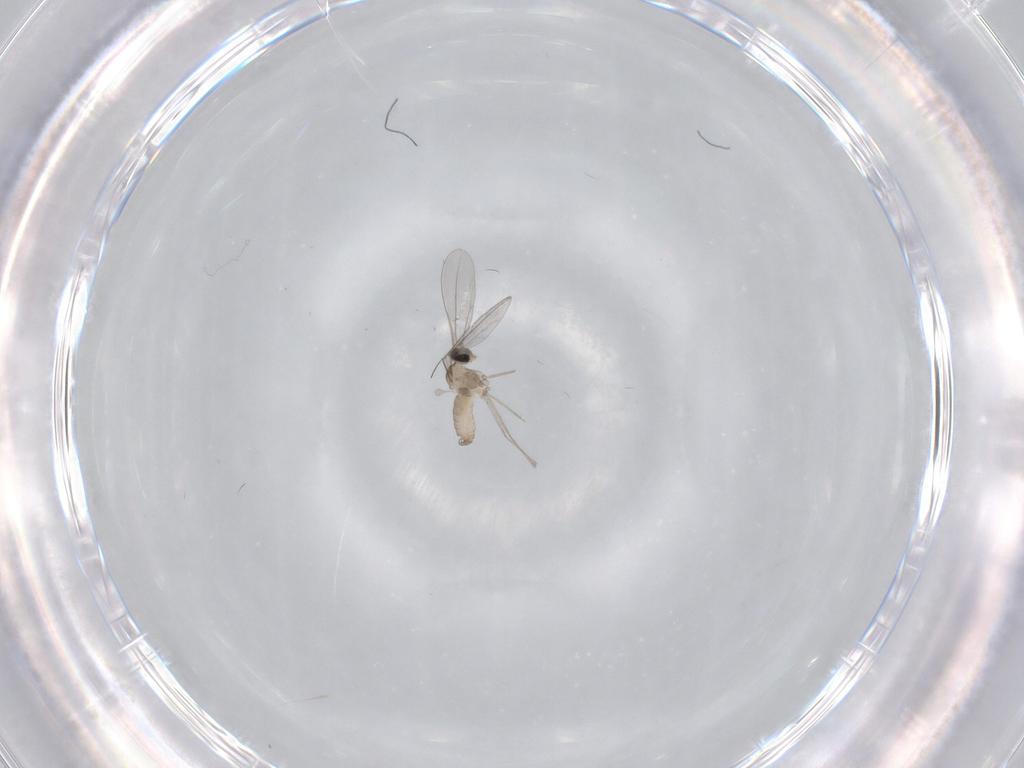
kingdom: Animalia
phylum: Arthropoda
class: Insecta
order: Diptera
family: Cecidomyiidae
